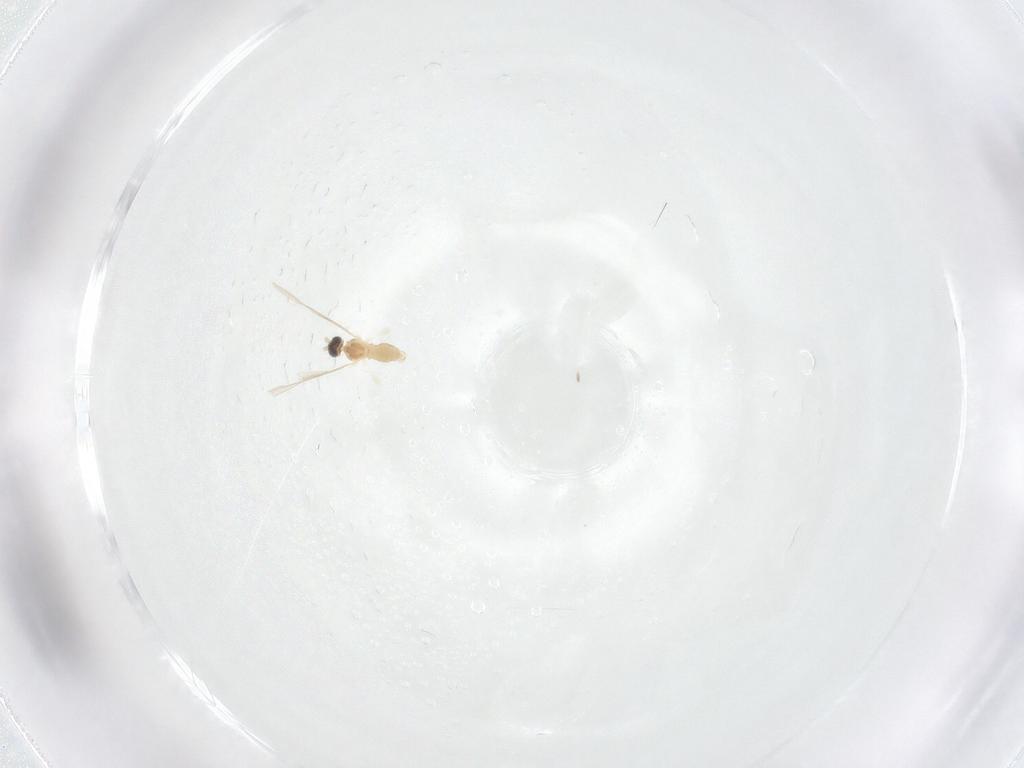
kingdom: Animalia
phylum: Arthropoda
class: Insecta
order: Diptera
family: Cecidomyiidae
